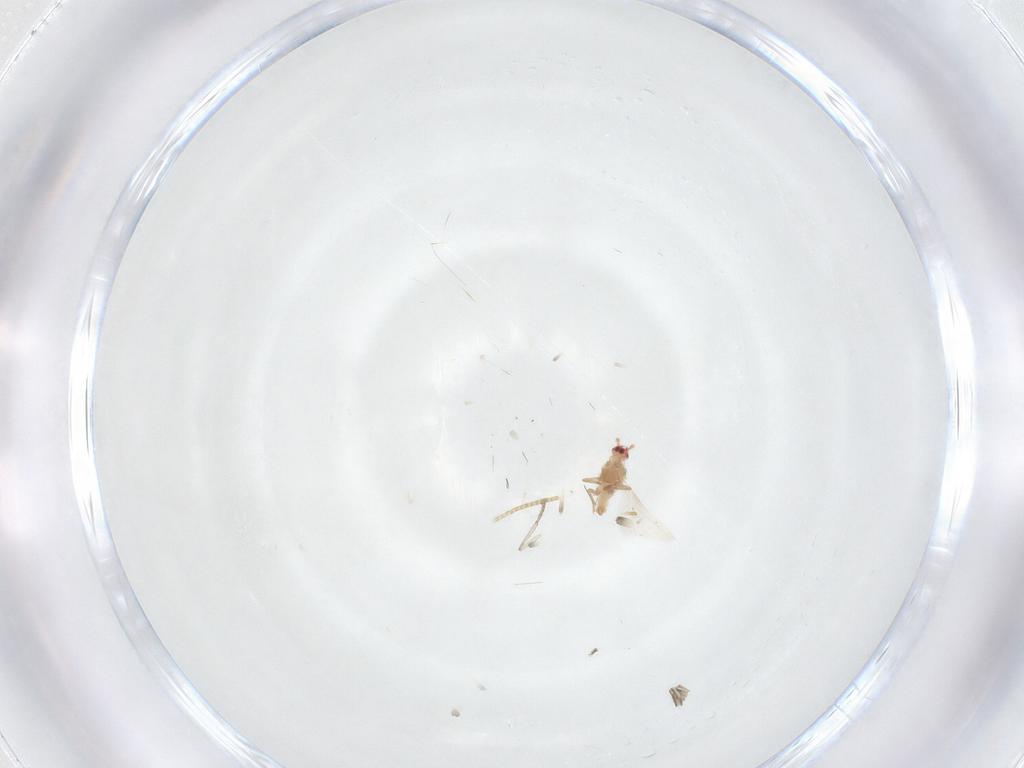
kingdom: Animalia
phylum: Arthropoda
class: Insecta
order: Diptera
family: Psychodidae
